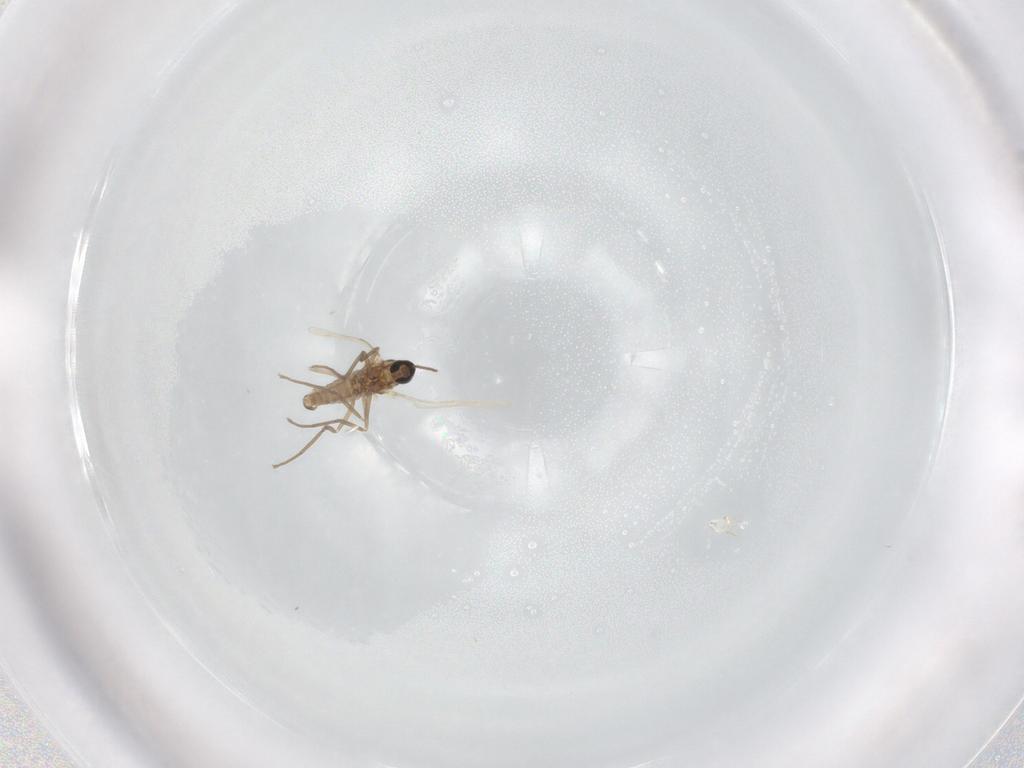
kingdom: Animalia
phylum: Arthropoda
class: Insecta
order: Diptera
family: Cecidomyiidae
